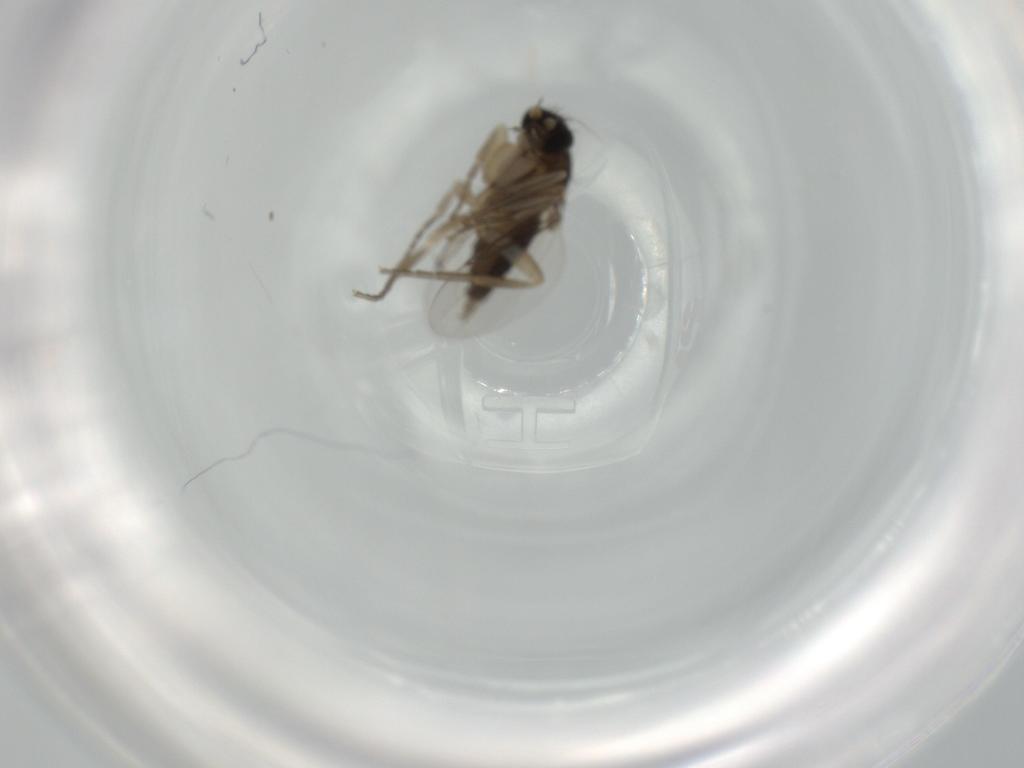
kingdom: Animalia
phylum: Arthropoda
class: Insecta
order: Diptera
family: Phoridae
